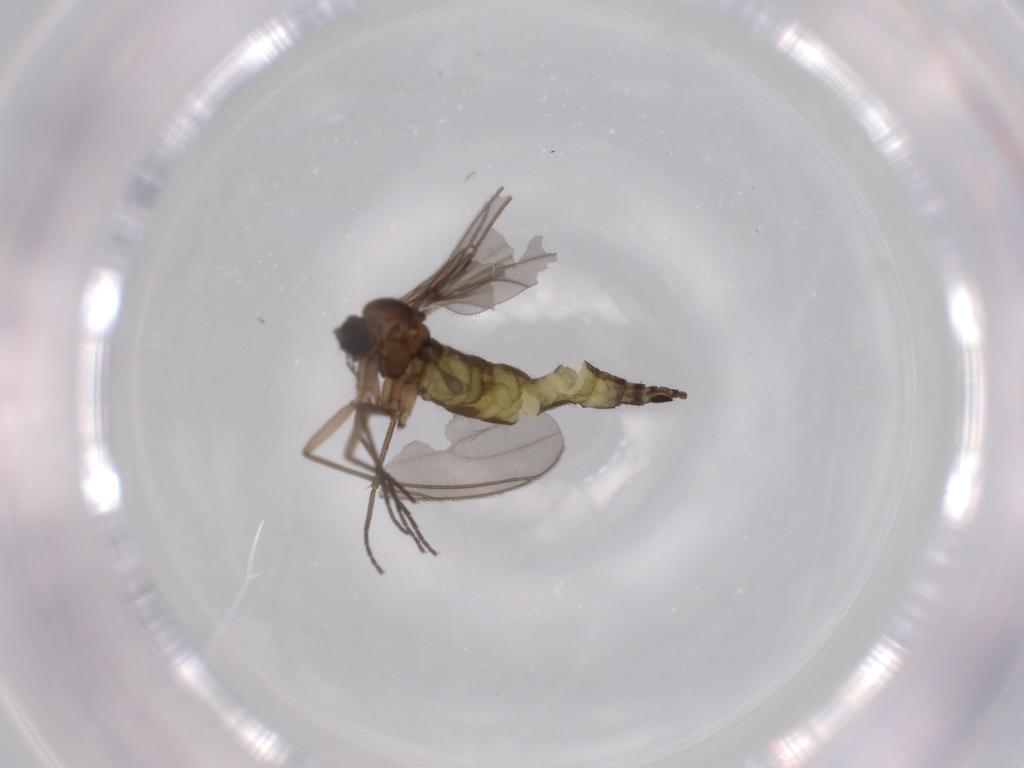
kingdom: Animalia
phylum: Arthropoda
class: Insecta
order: Diptera
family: Sciaridae
